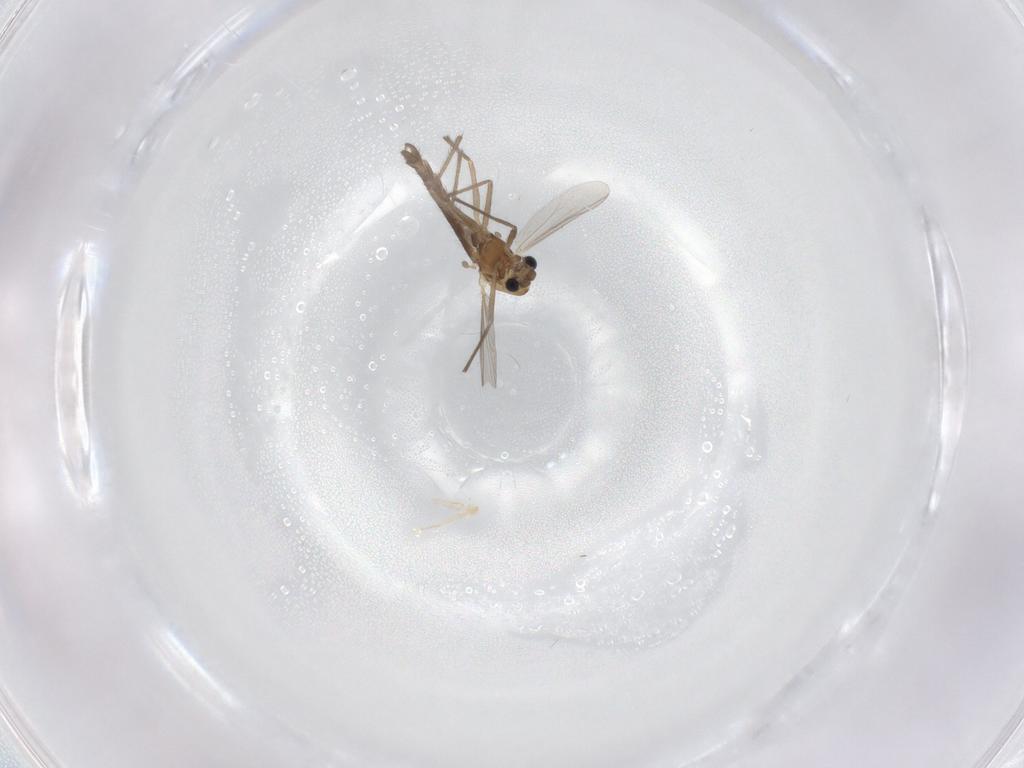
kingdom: Animalia
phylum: Arthropoda
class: Insecta
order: Diptera
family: Chironomidae
